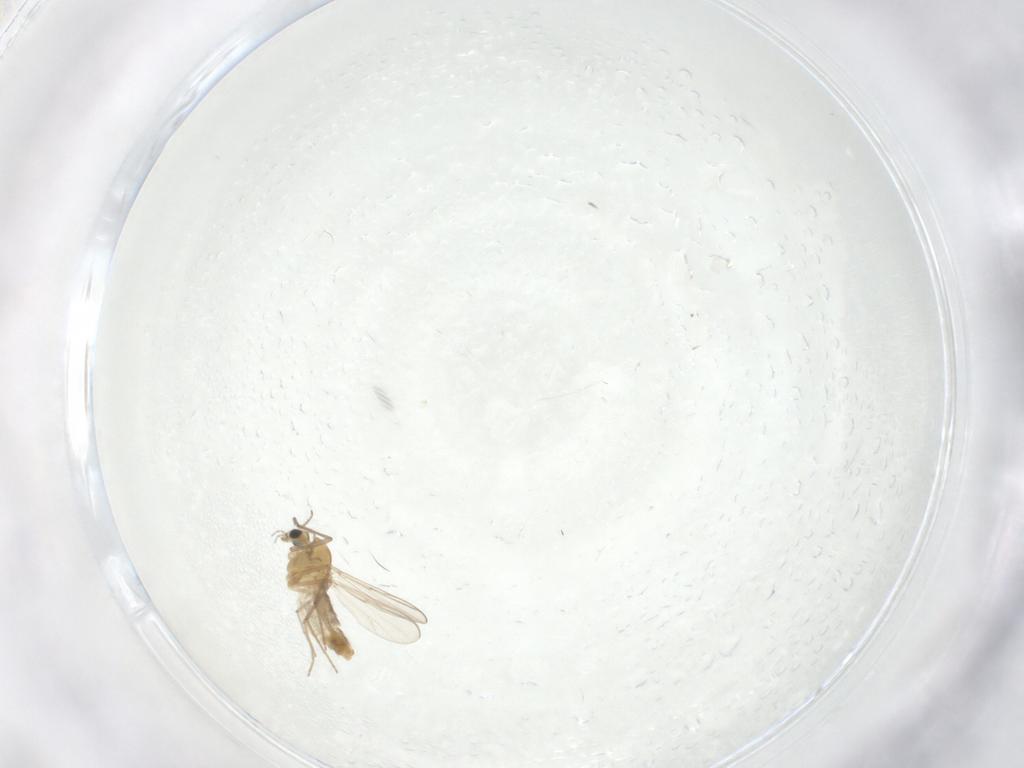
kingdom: Animalia
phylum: Arthropoda
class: Insecta
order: Diptera
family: Chironomidae
